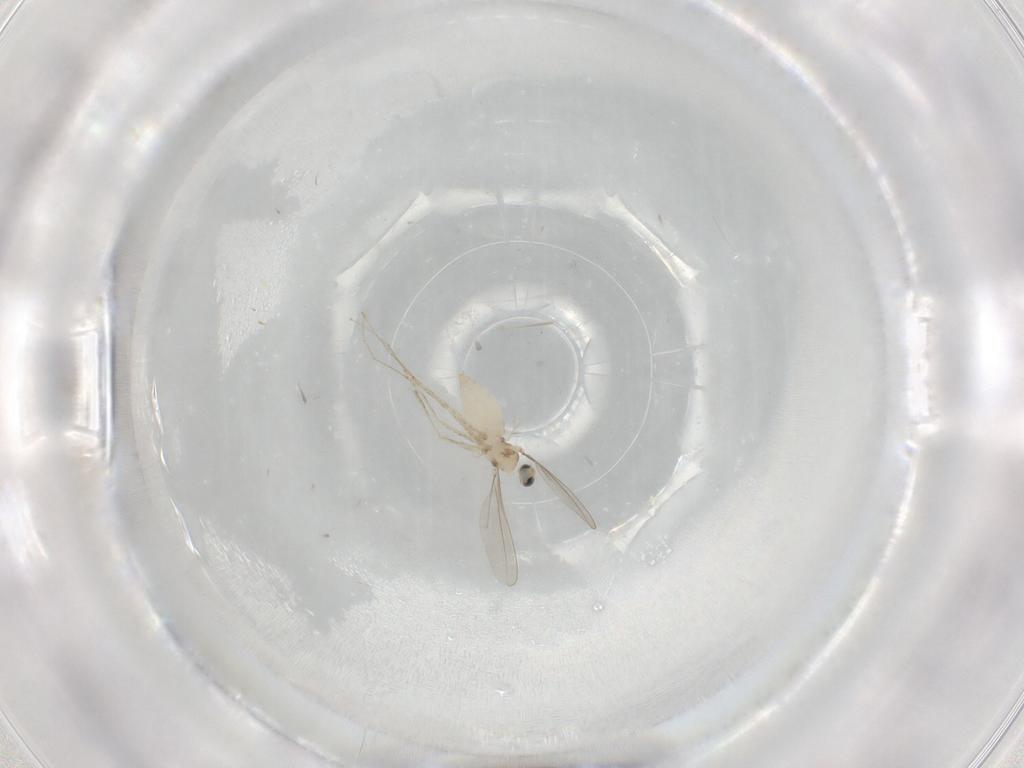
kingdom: Animalia
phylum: Arthropoda
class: Insecta
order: Diptera
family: Cecidomyiidae
